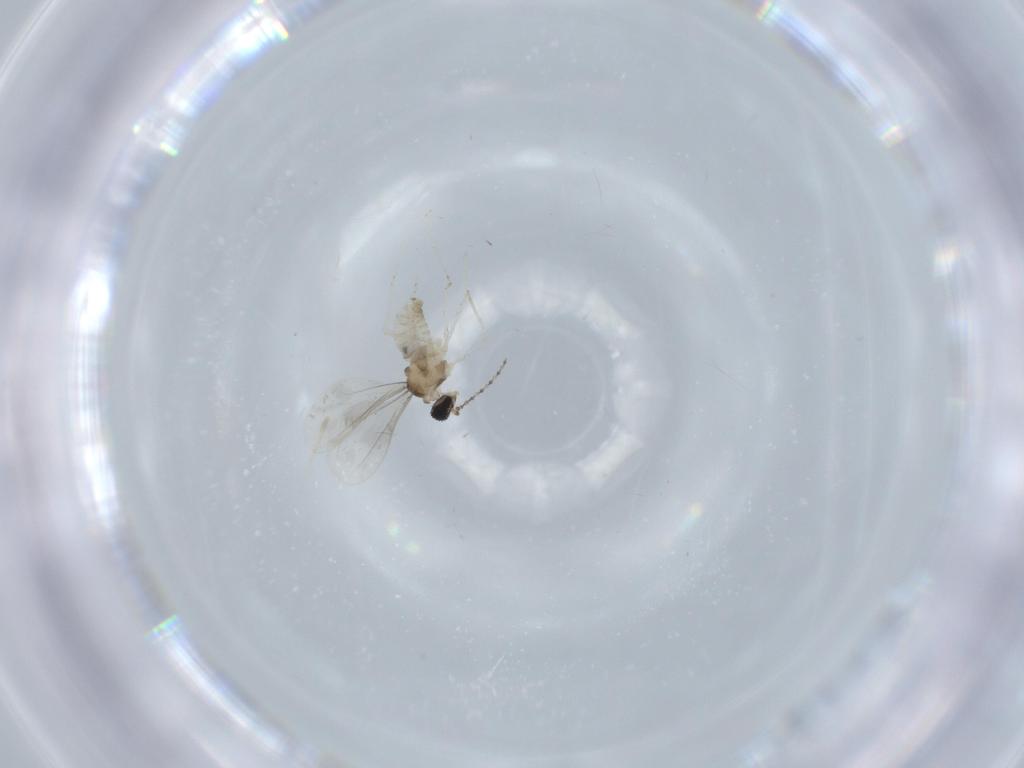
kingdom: Animalia
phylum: Arthropoda
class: Insecta
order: Diptera
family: Cecidomyiidae
